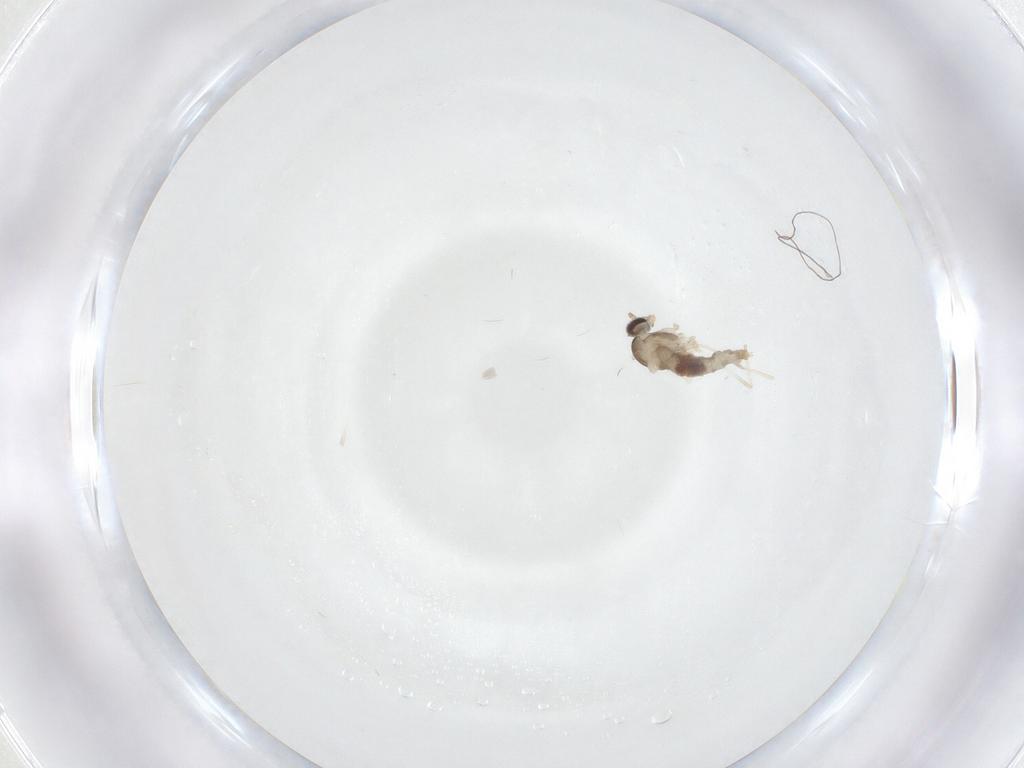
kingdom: Animalia
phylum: Arthropoda
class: Insecta
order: Diptera
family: Cecidomyiidae
